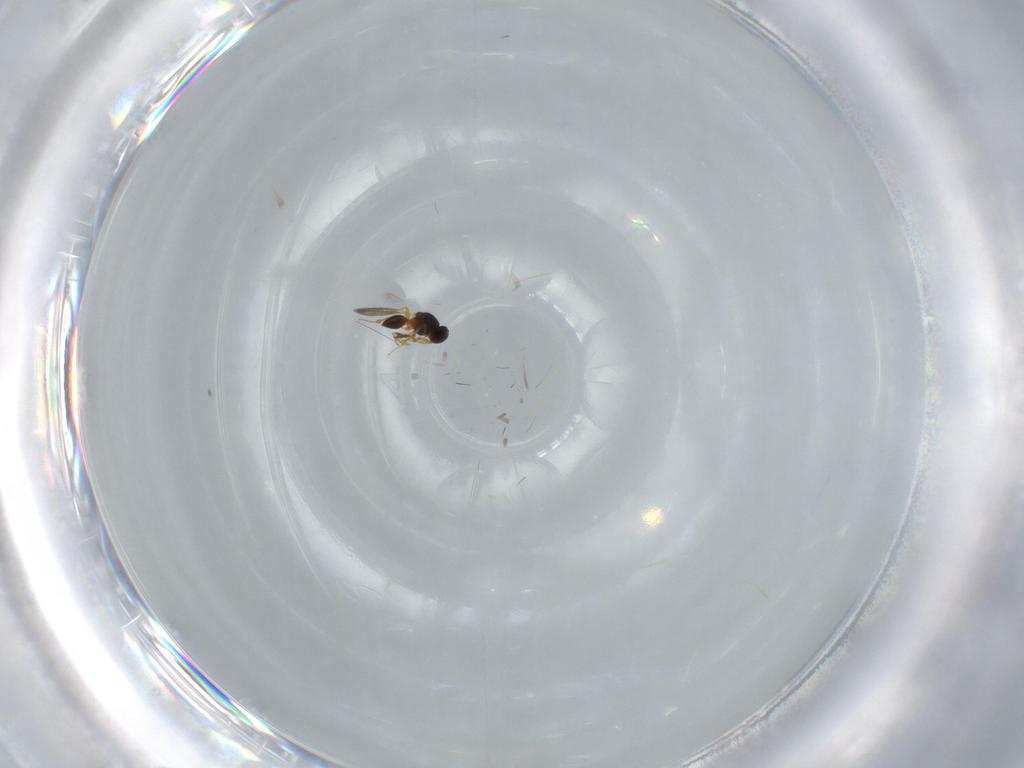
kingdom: Animalia
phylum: Arthropoda
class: Insecta
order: Hymenoptera
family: Scelionidae
